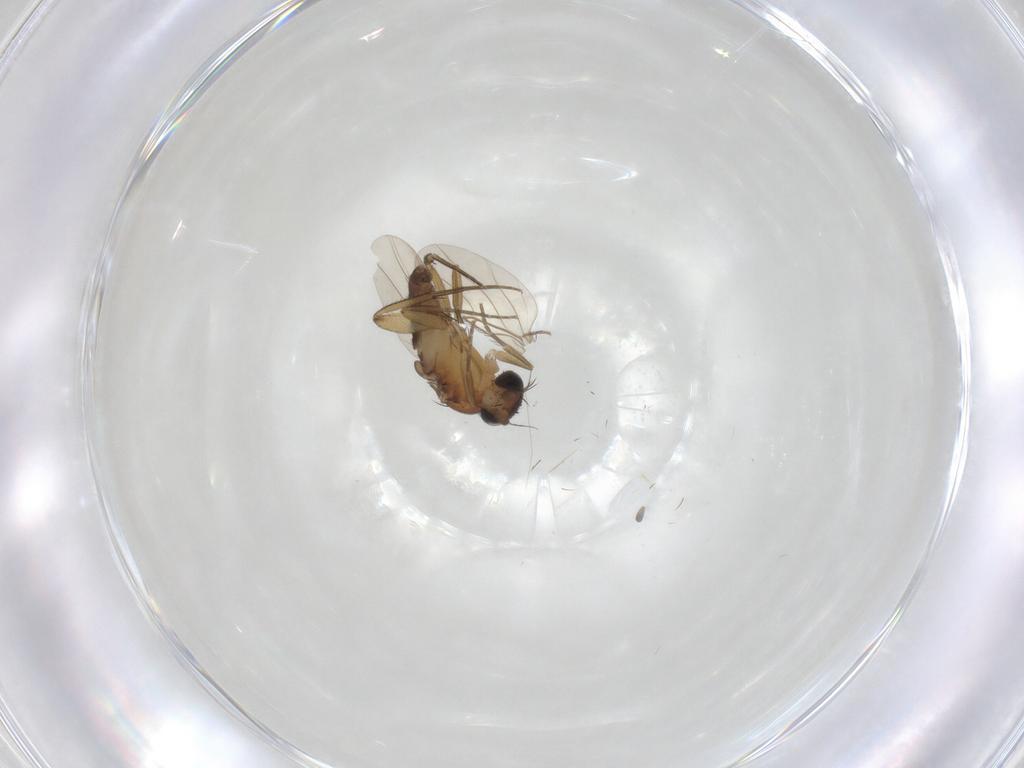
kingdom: Animalia
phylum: Arthropoda
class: Insecta
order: Diptera
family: Phoridae
